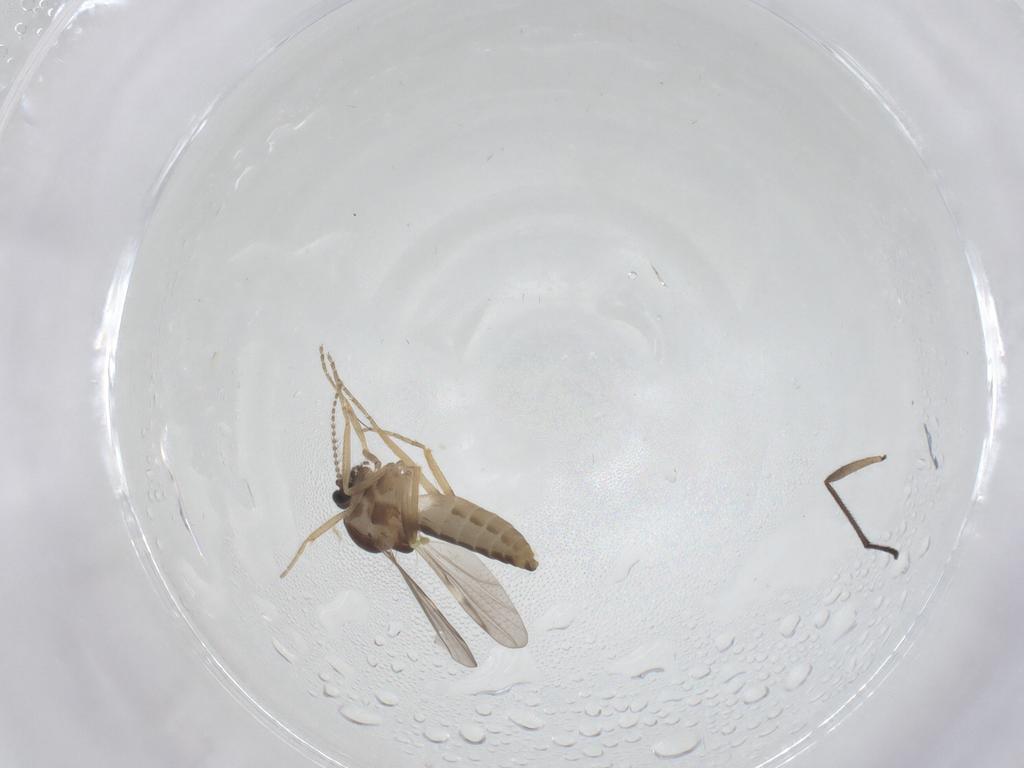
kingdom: Animalia
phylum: Arthropoda
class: Insecta
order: Diptera
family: Ceratopogonidae
